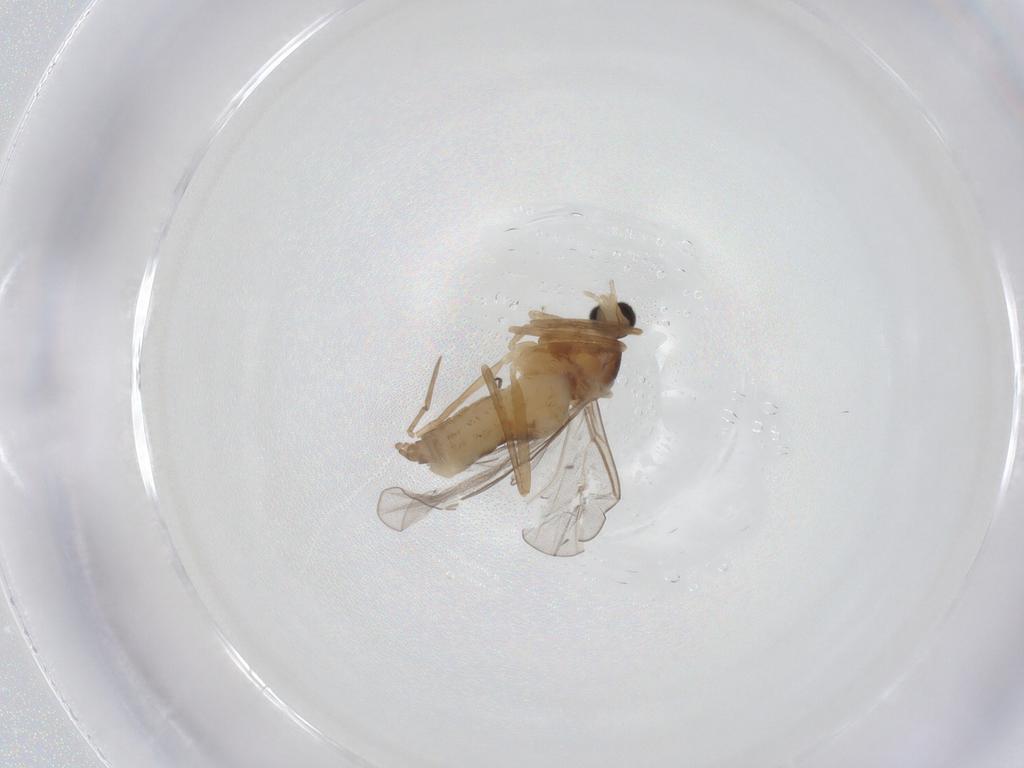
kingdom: Animalia
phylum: Arthropoda
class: Insecta
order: Diptera
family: Cecidomyiidae
